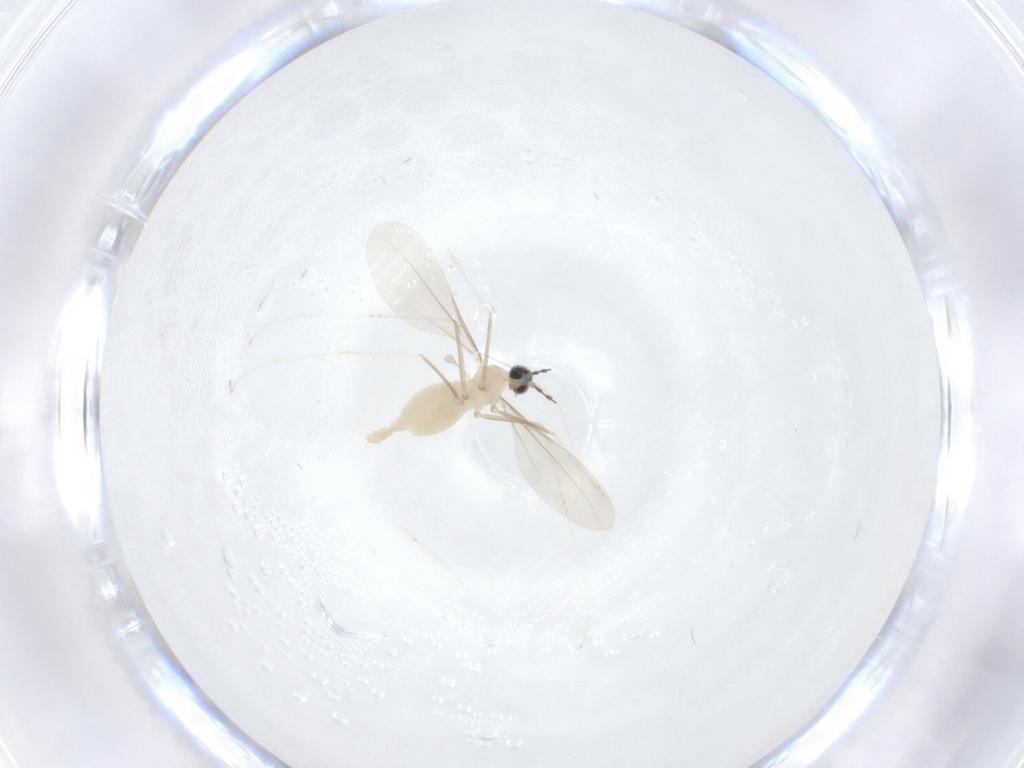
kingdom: Animalia
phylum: Arthropoda
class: Insecta
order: Diptera
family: Cecidomyiidae
